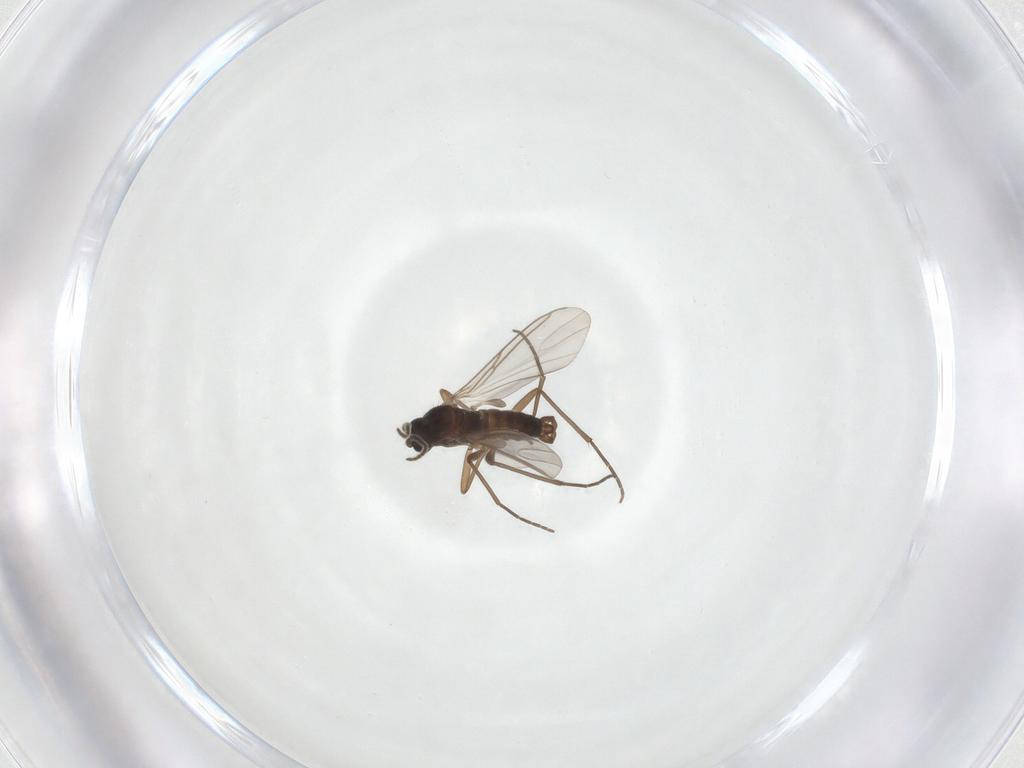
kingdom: Animalia
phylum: Arthropoda
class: Insecta
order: Diptera
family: Sciaridae
